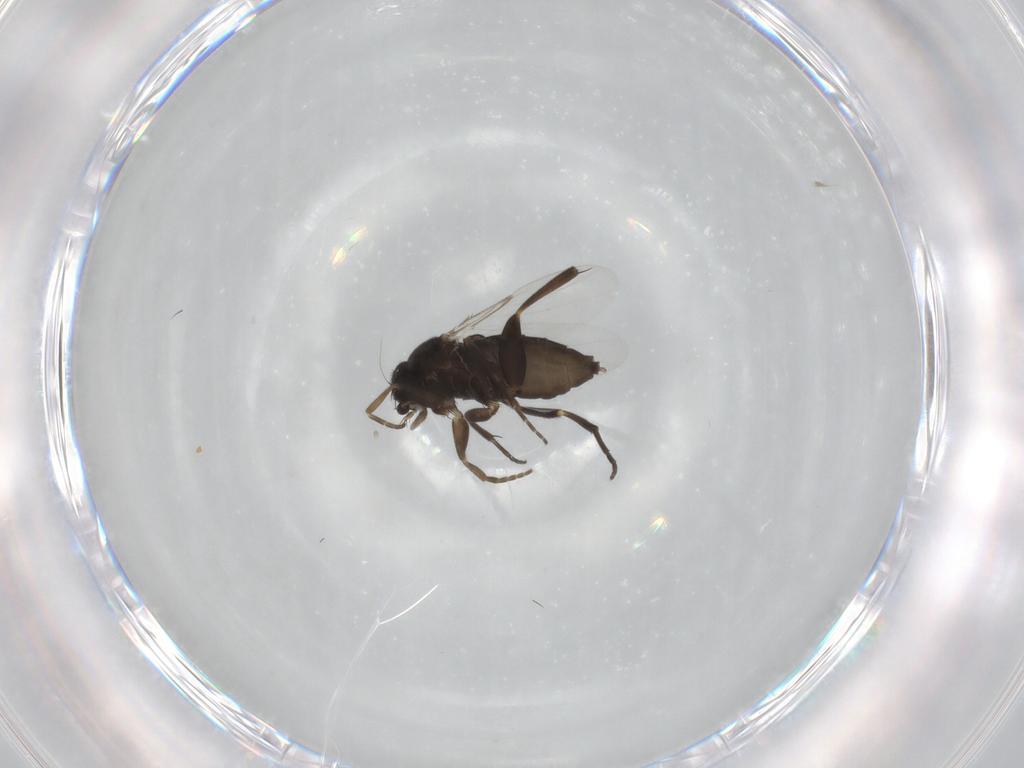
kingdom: Animalia
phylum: Arthropoda
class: Insecta
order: Diptera
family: Phoridae
